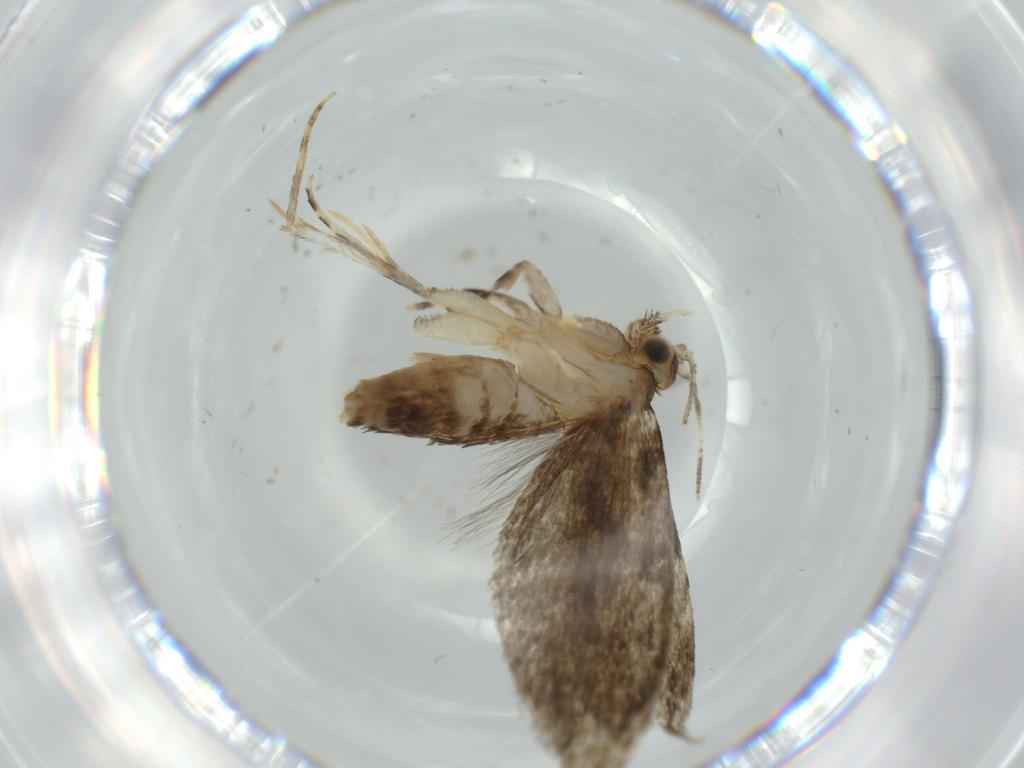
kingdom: Animalia
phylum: Arthropoda
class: Insecta
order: Lepidoptera
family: Tineidae
